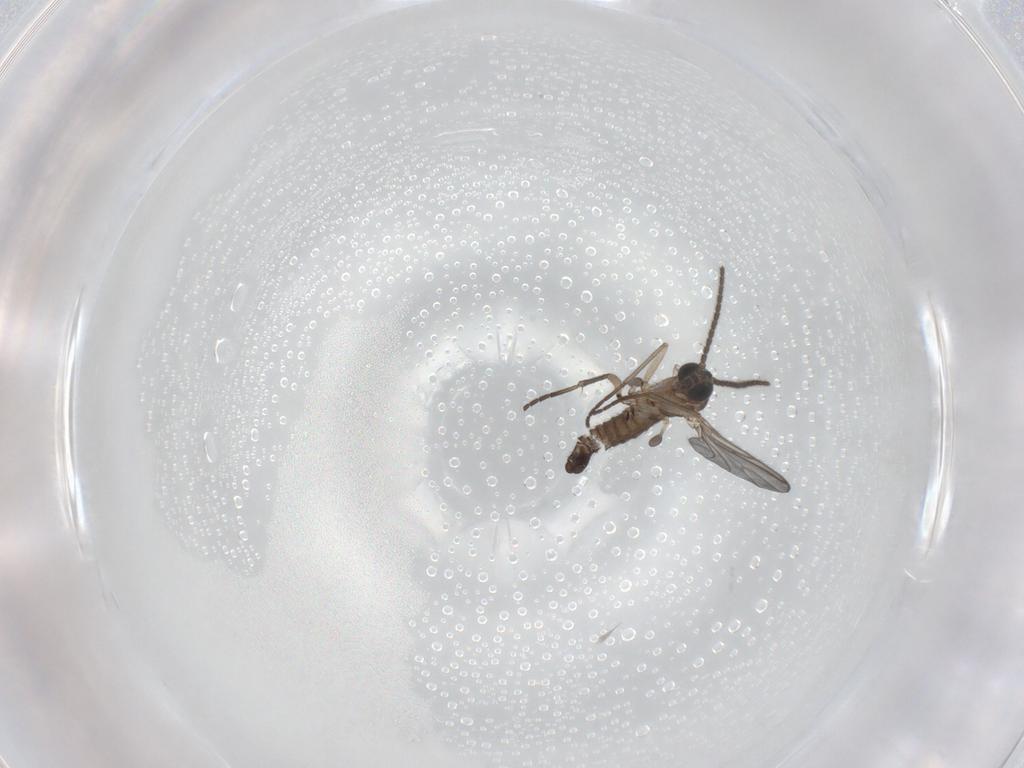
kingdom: Animalia
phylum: Arthropoda
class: Insecta
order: Diptera
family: Sciaridae
